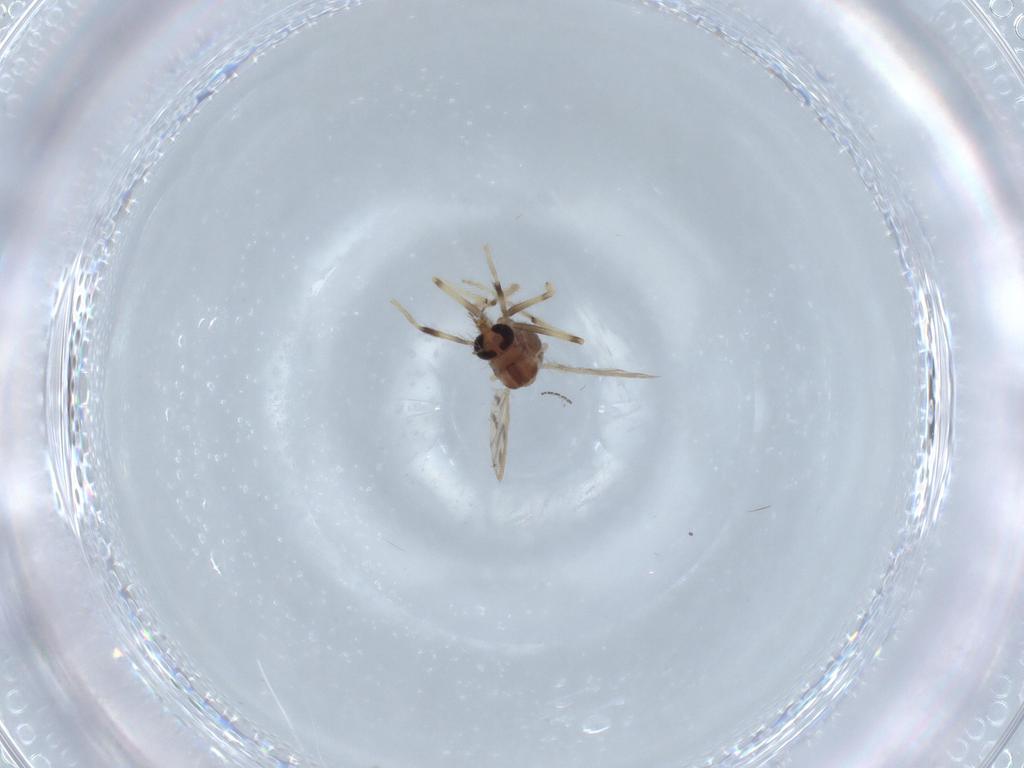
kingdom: Animalia
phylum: Arthropoda
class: Insecta
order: Diptera
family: Chironomidae
